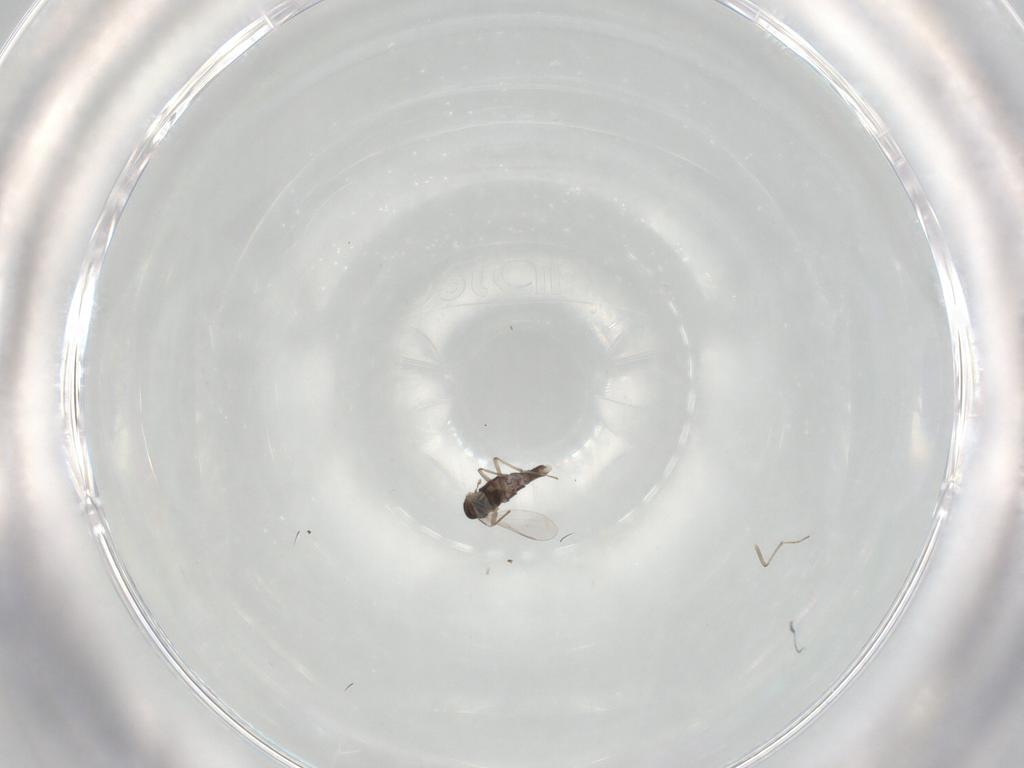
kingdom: Animalia
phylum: Arthropoda
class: Insecta
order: Diptera
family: Chironomidae
